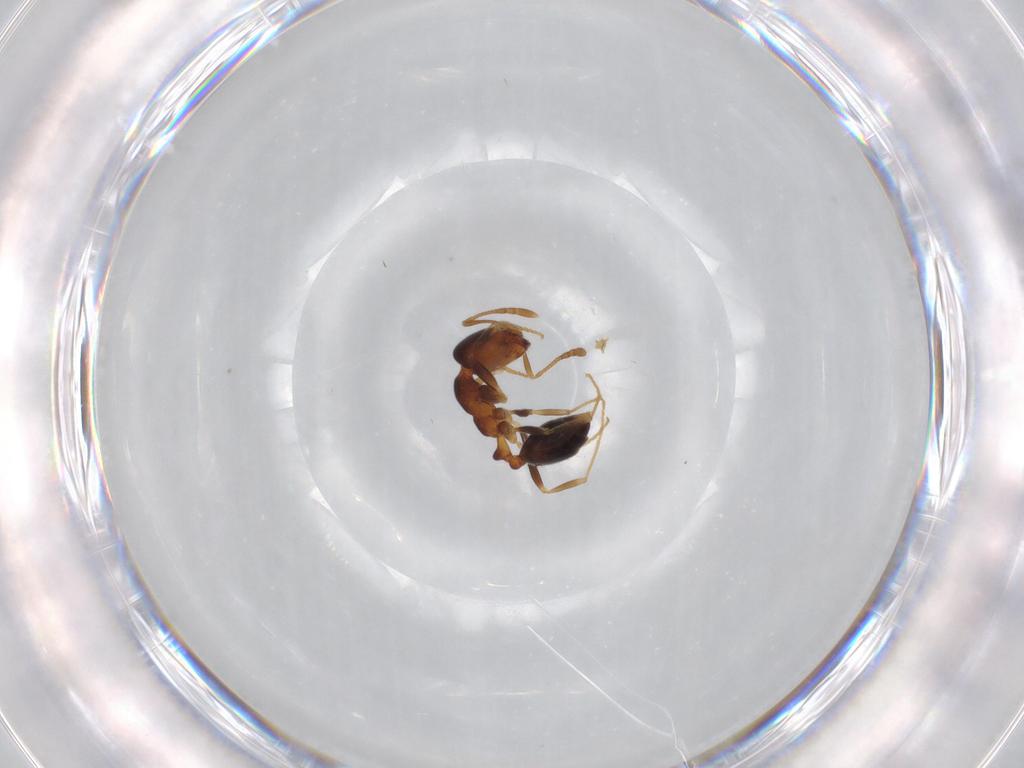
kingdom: Animalia
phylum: Arthropoda
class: Insecta
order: Hymenoptera
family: Formicidae
